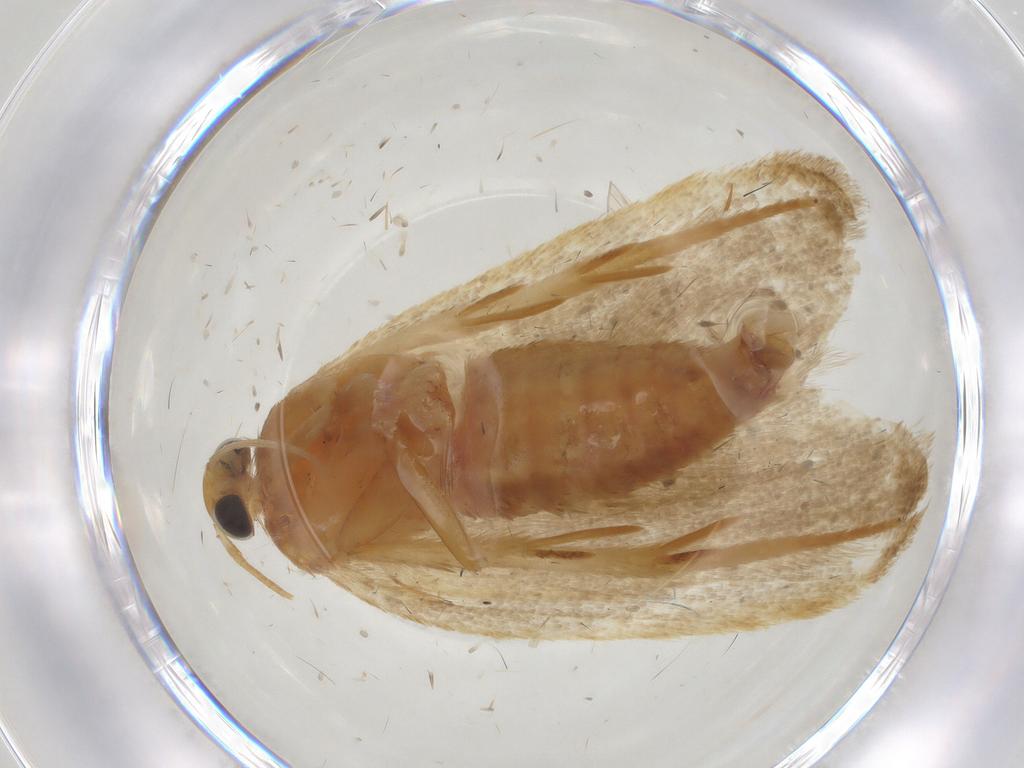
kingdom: Animalia
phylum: Arthropoda
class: Insecta
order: Lepidoptera
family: Autostichidae
